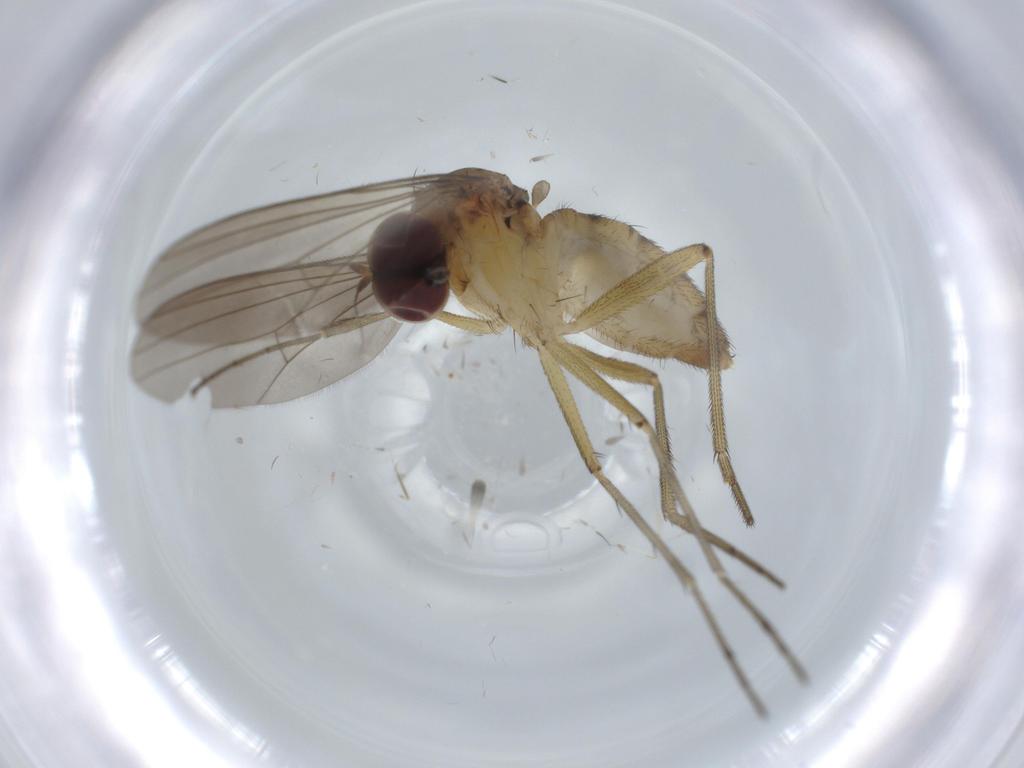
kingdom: Animalia
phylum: Arthropoda
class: Insecta
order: Diptera
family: Dolichopodidae
